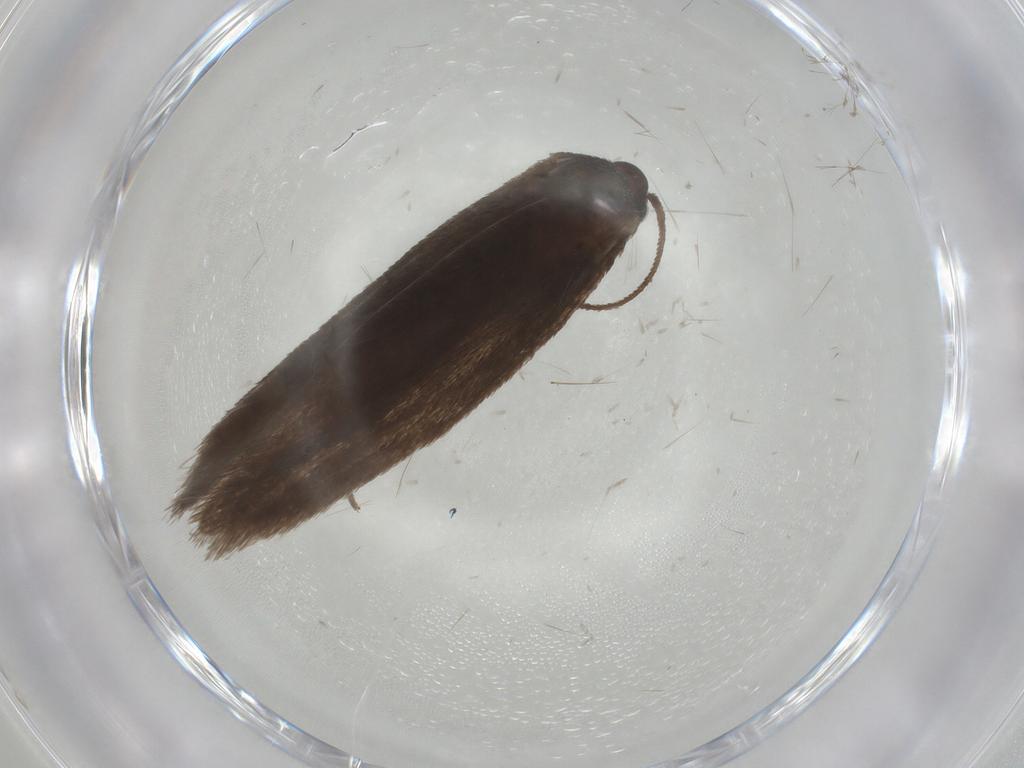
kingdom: Animalia
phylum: Arthropoda
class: Insecta
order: Lepidoptera
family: Limacodidae
